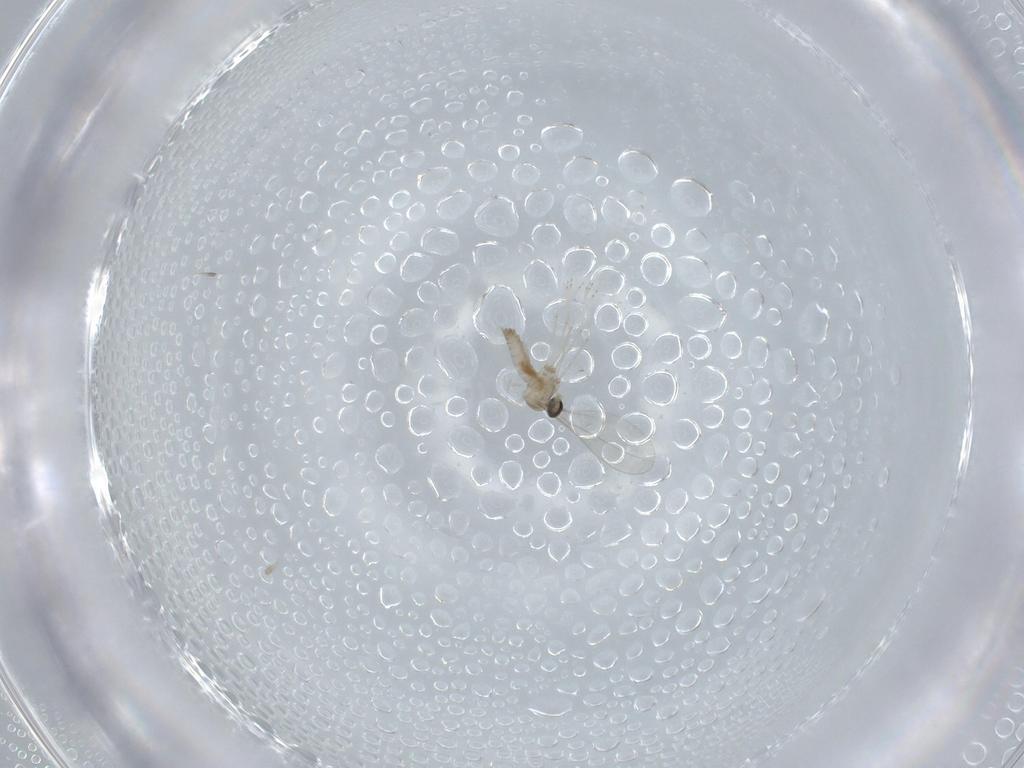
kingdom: Animalia
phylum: Arthropoda
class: Insecta
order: Diptera
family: Cecidomyiidae
